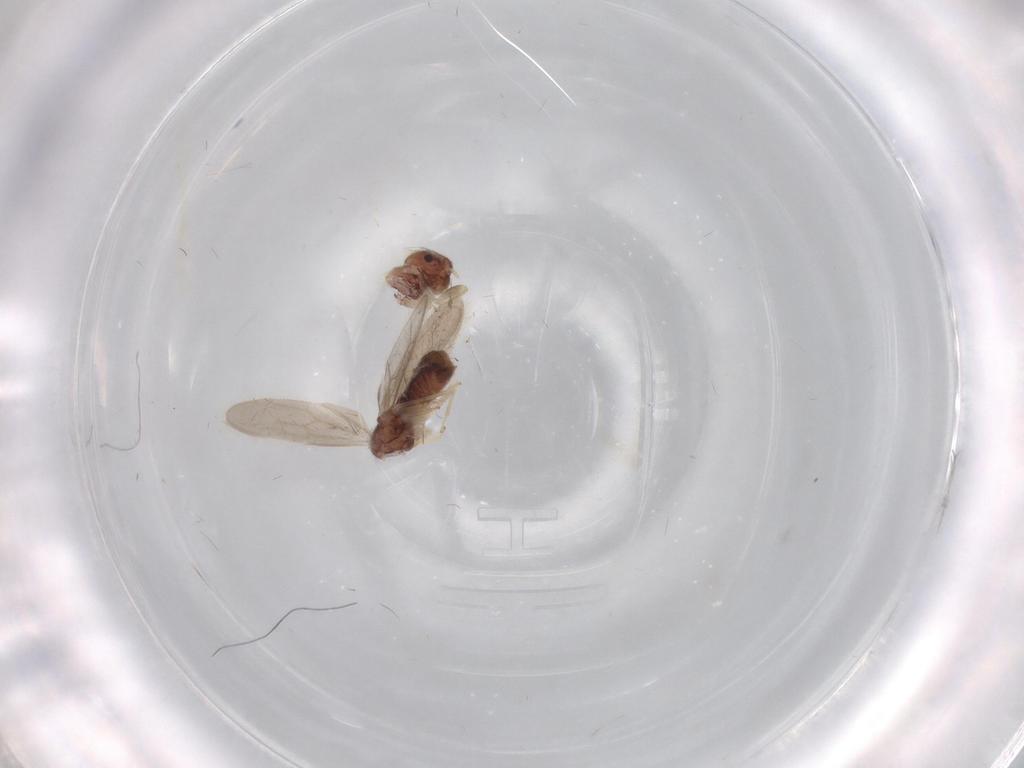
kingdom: Animalia
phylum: Arthropoda
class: Insecta
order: Psocodea
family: Archipsocidae
